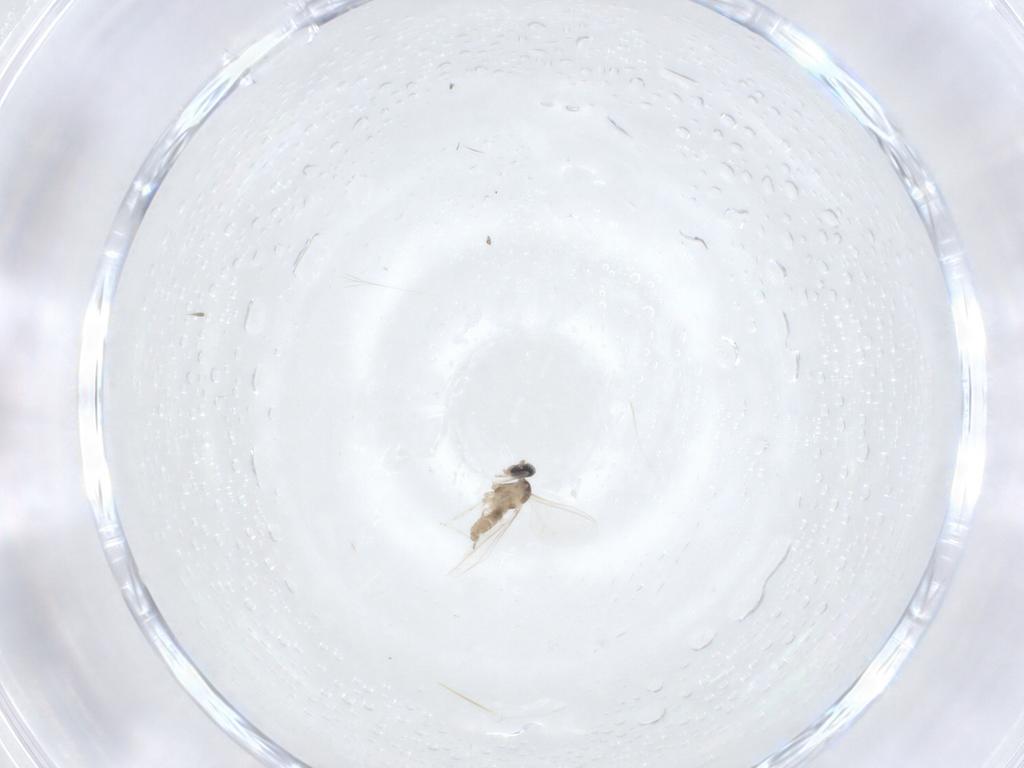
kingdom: Animalia
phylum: Arthropoda
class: Insecta
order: Diptera
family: Cecidomyiidae
